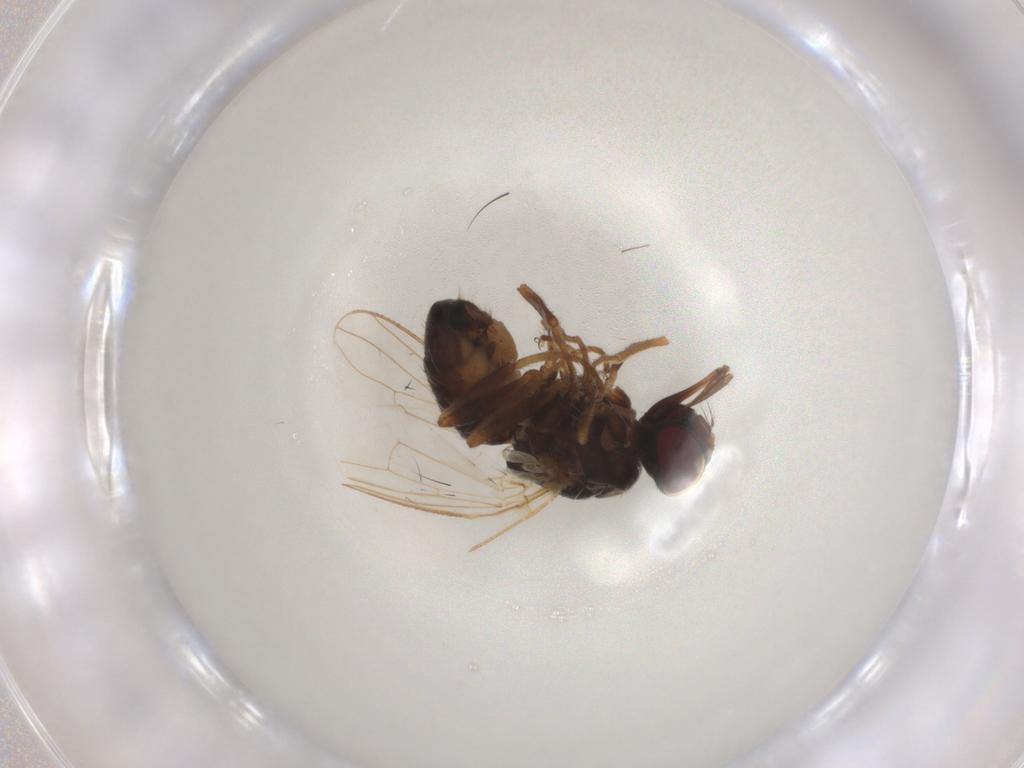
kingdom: Animalia
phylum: Arthropoda
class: Insecta
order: Diptera
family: Muscidae
